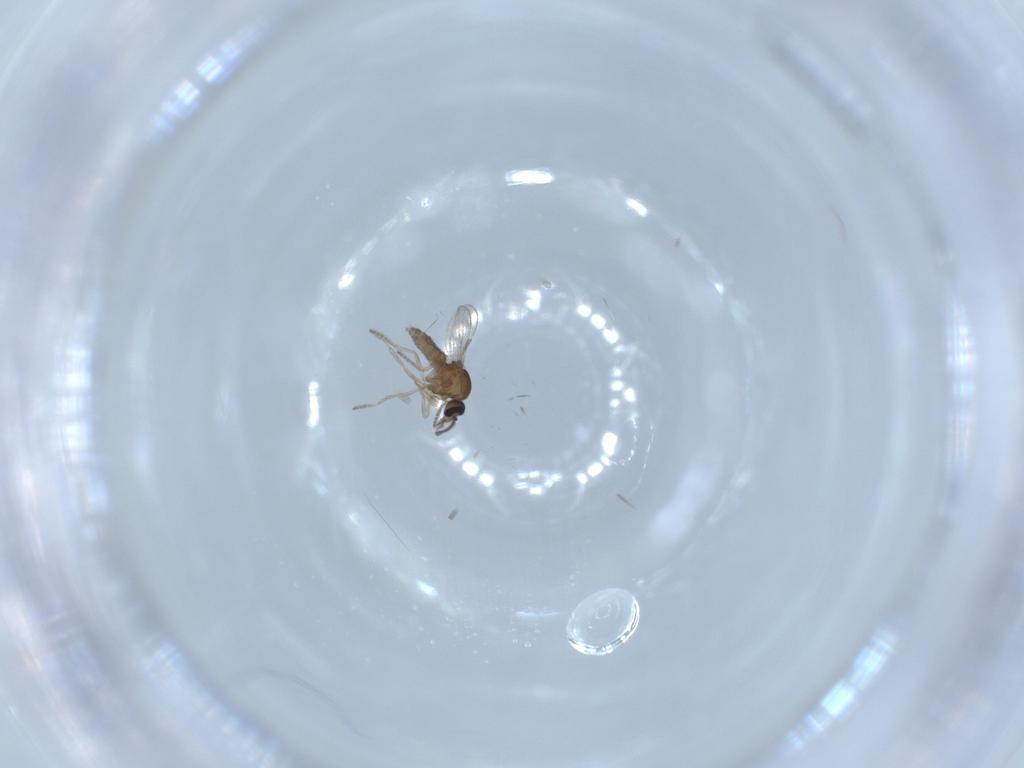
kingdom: Animalia
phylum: Arthropoda
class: Insecta
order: Diptera
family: Ceratopogonidae
